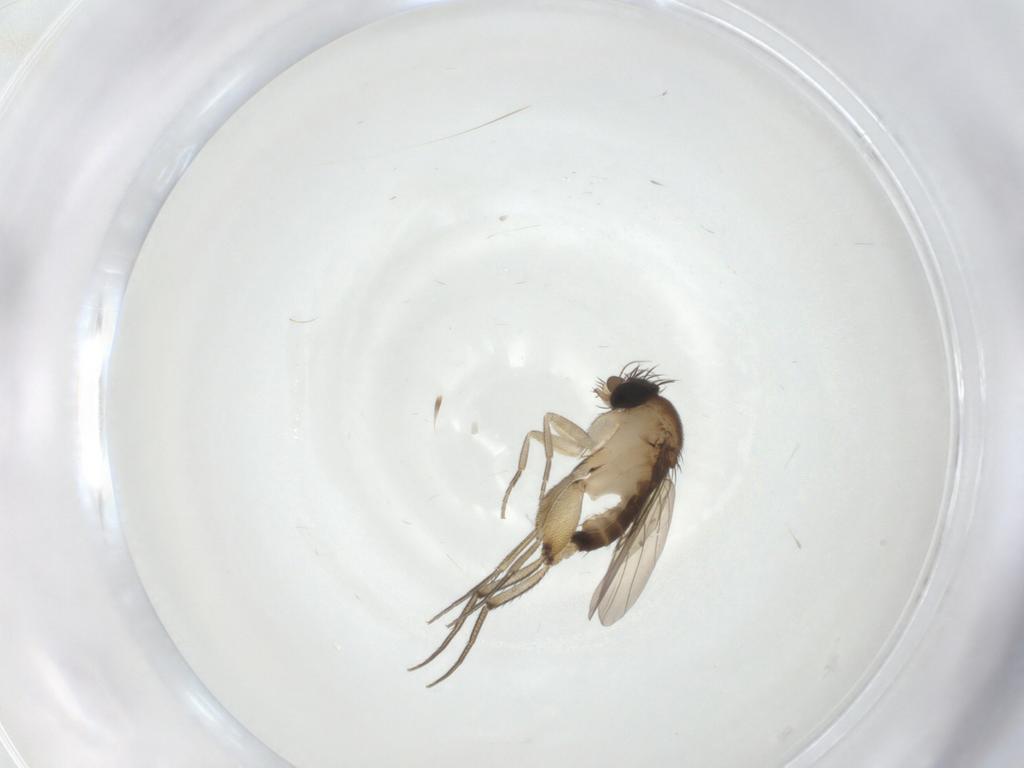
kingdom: Animalia
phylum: Arthropoda
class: Insecta
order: Diptera
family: Phoridae
